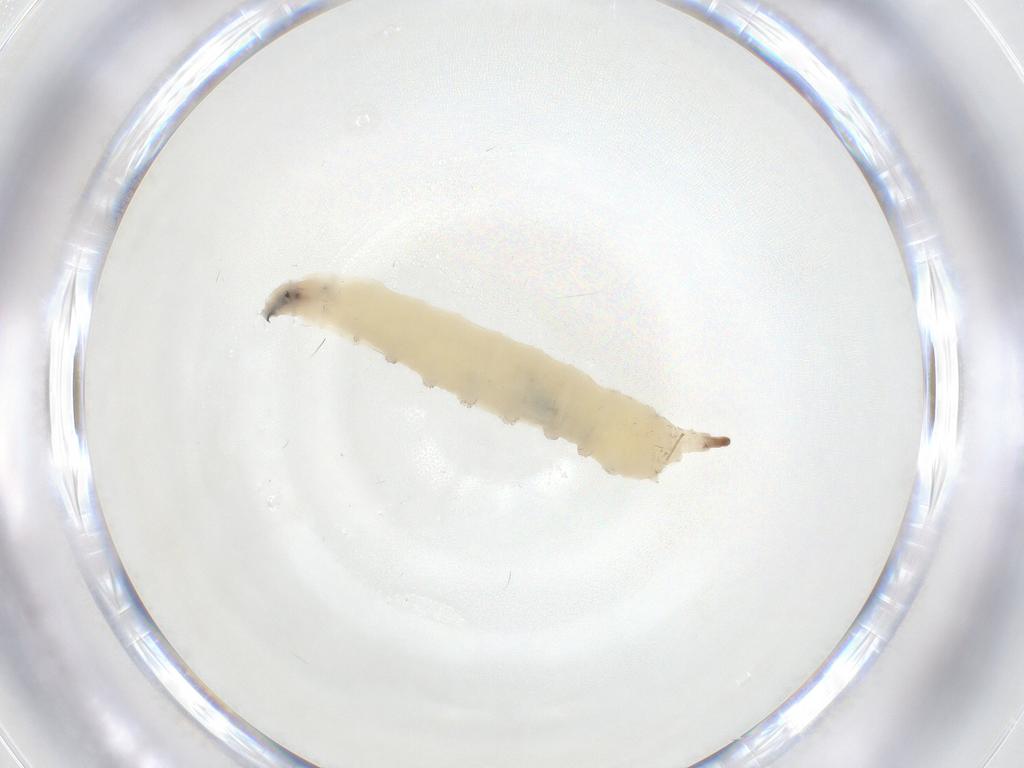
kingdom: Animalia
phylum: Arthropoda
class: Insecta
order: Diptera
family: Drosophilidae
